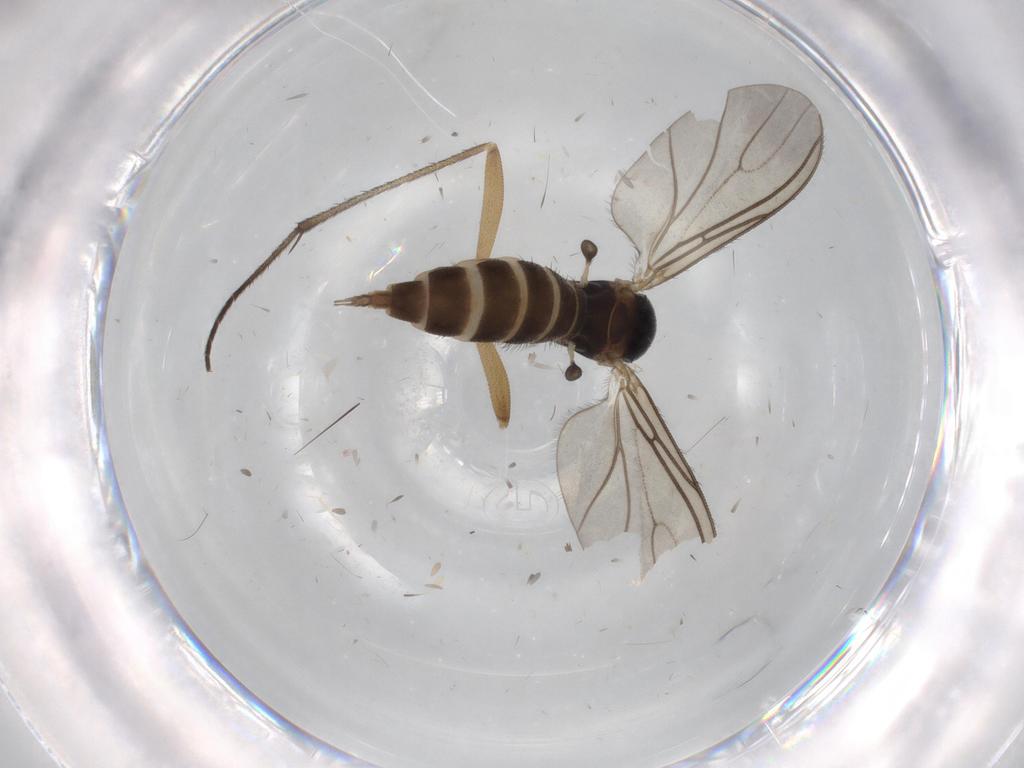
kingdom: Animalia
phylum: Arthropoda
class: Insecta
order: Diptera
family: Sciaridae
